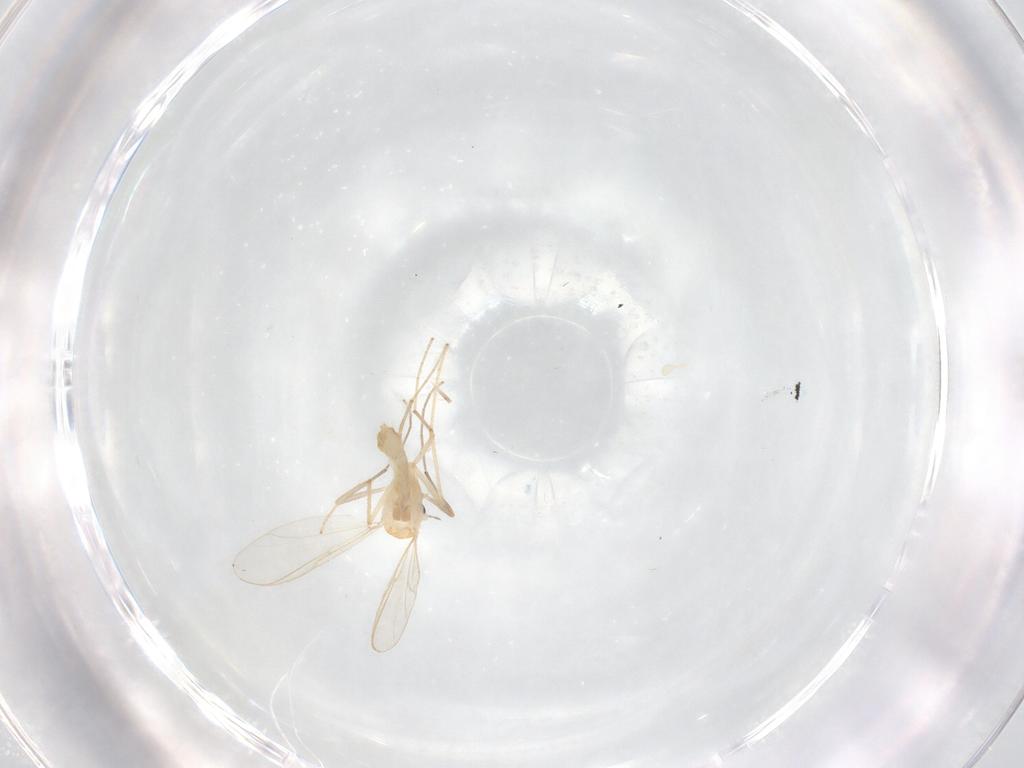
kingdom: Animalia
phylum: Arthropoda
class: Insecta
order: Diptera
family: Chironomidae
